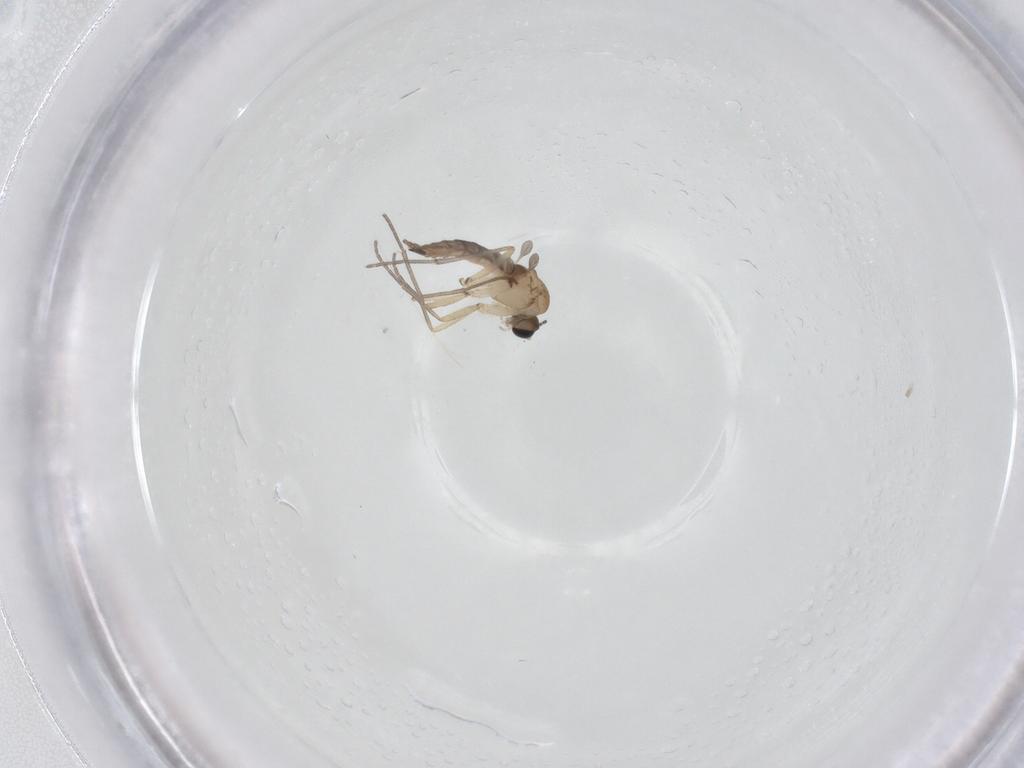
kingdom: Animalia
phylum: Arthropoda
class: Insecta
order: Diptera
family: Sciaridae
